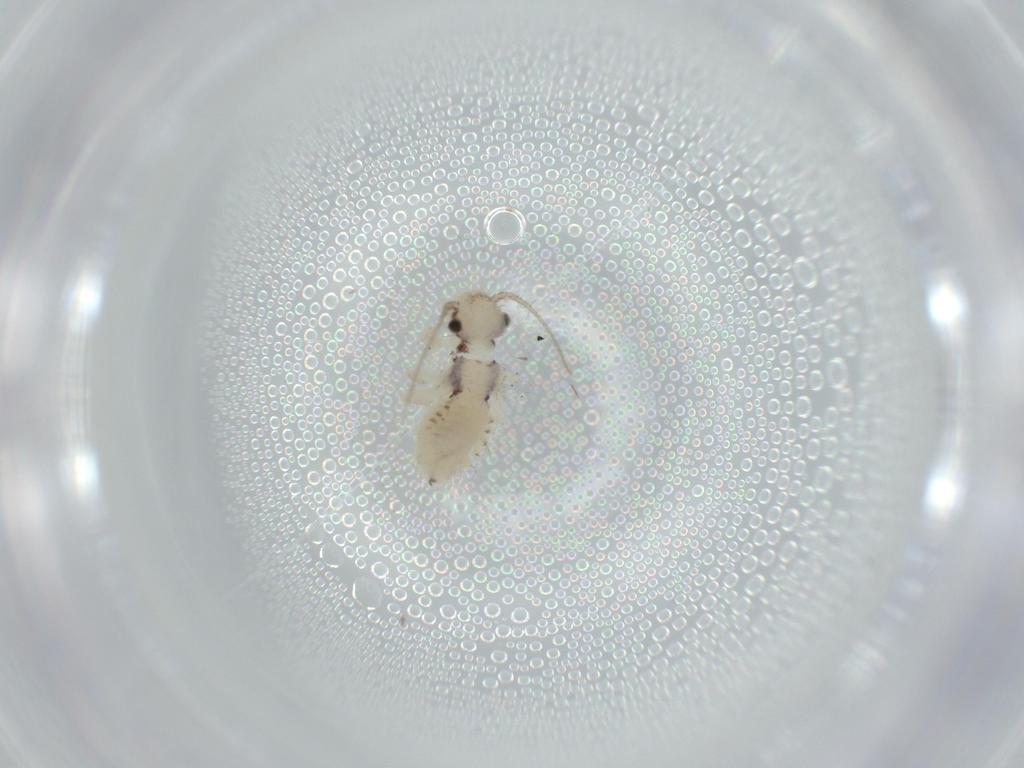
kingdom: Animalia
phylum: Arthropoda
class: Insecta
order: Psocodea
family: Pseudocaeciliidae
